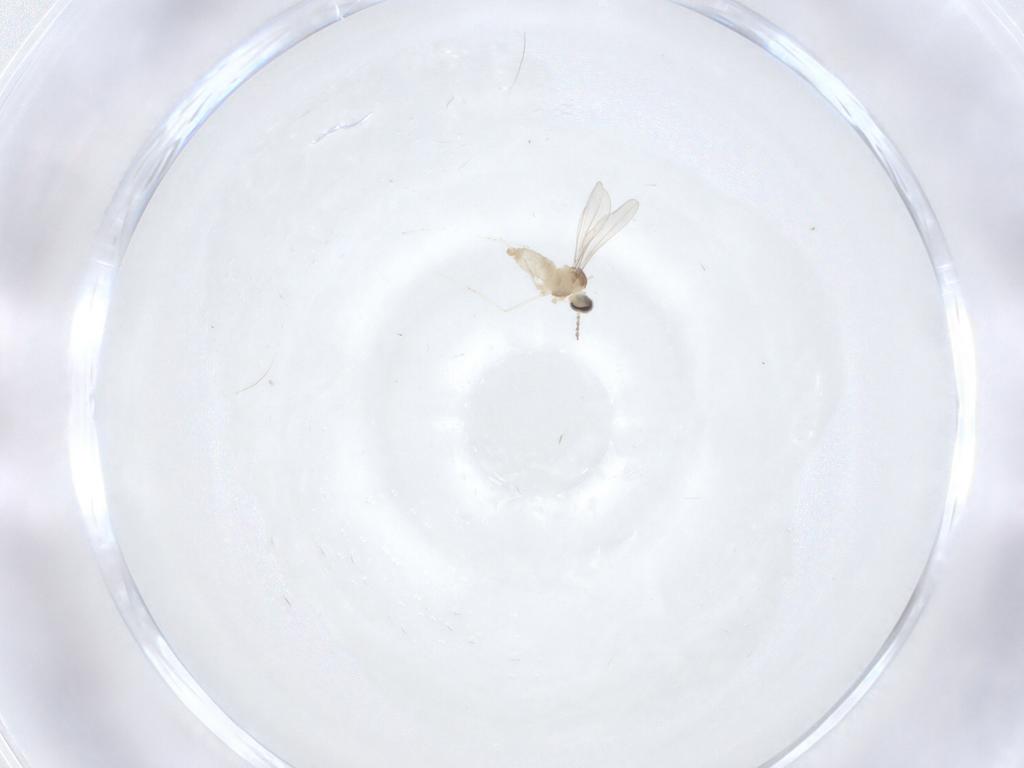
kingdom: Animalia
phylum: Arthropoda
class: Insecta
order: Diptera
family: Cecidomyiidae
